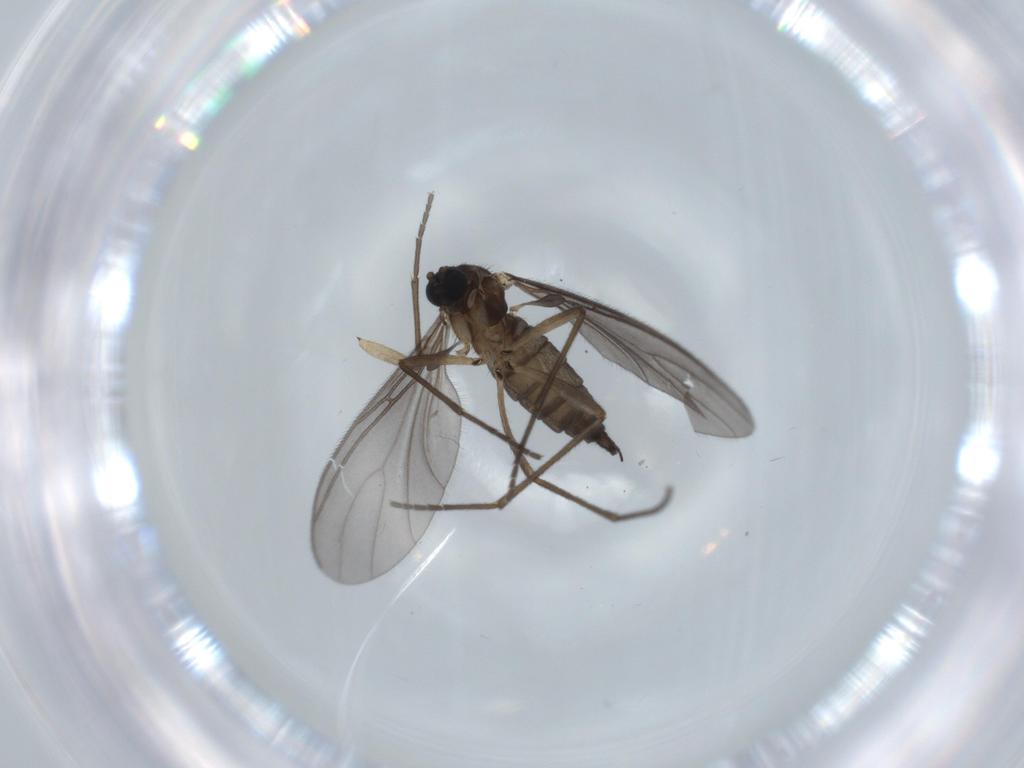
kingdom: Animalia
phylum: Arthropoda
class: Insecta
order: Diptera
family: Sciaridae
